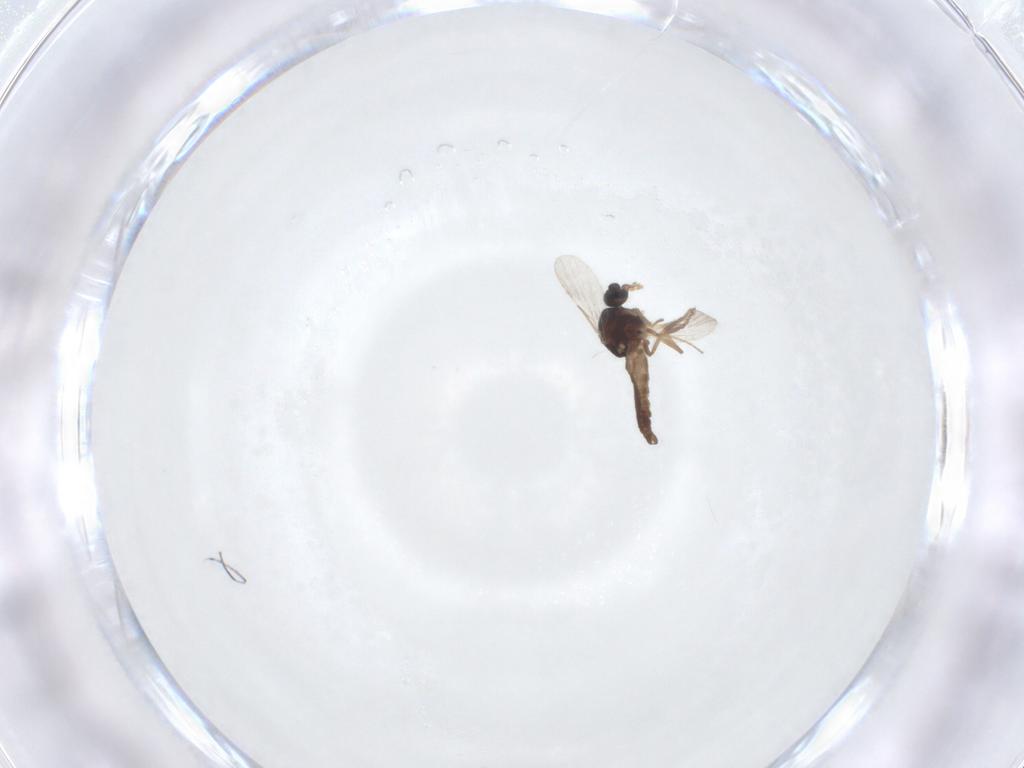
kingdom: Animalia
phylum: Arthropoda
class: Insecta
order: Diptera
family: Ceratopogonidae
